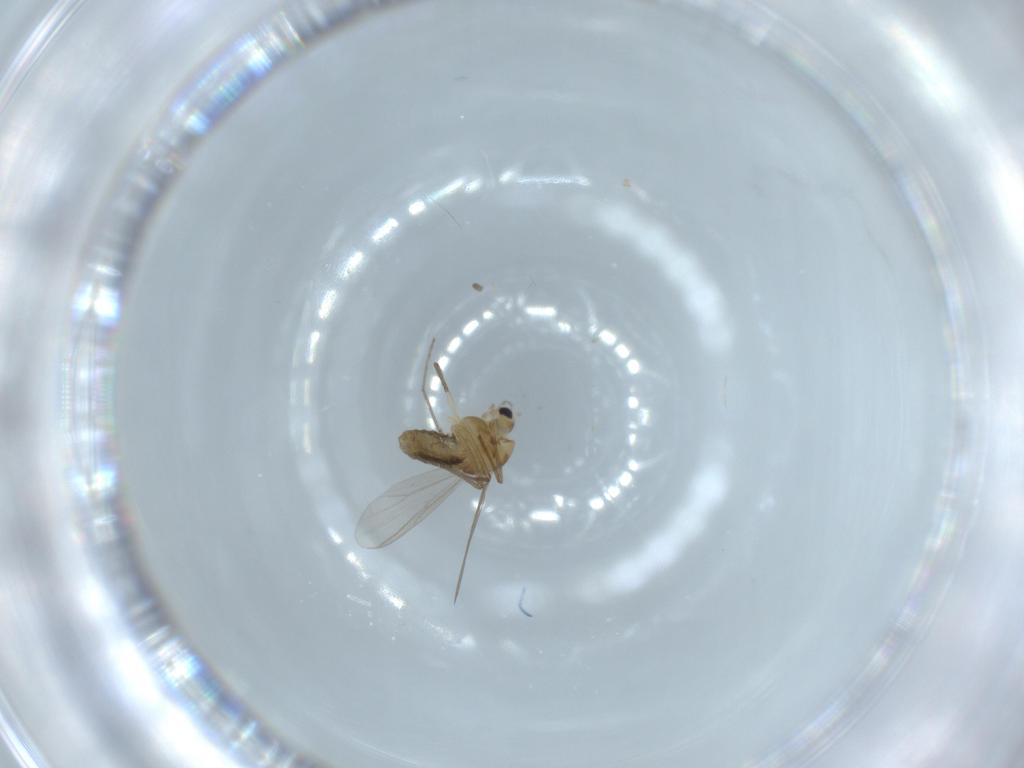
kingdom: Animalia
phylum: Arthropoda
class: Insecta
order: Diptera
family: Chironomidae
